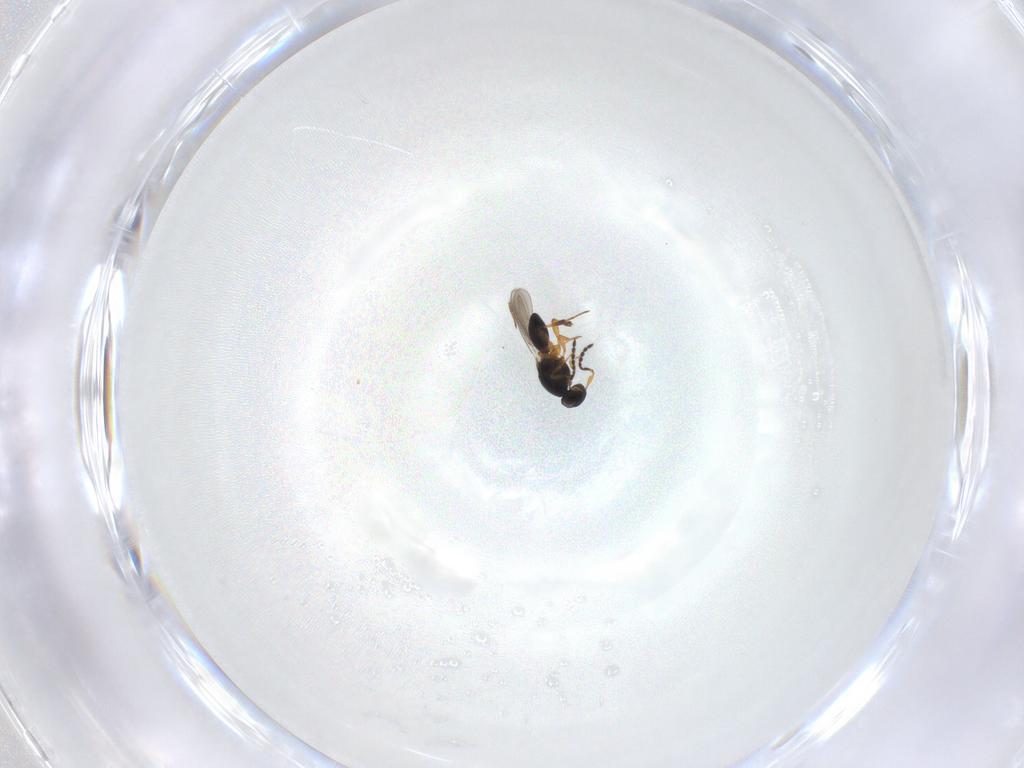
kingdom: Animalia
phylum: Arthropoda
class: Insecta
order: Hymenoptera
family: Platygastridae
